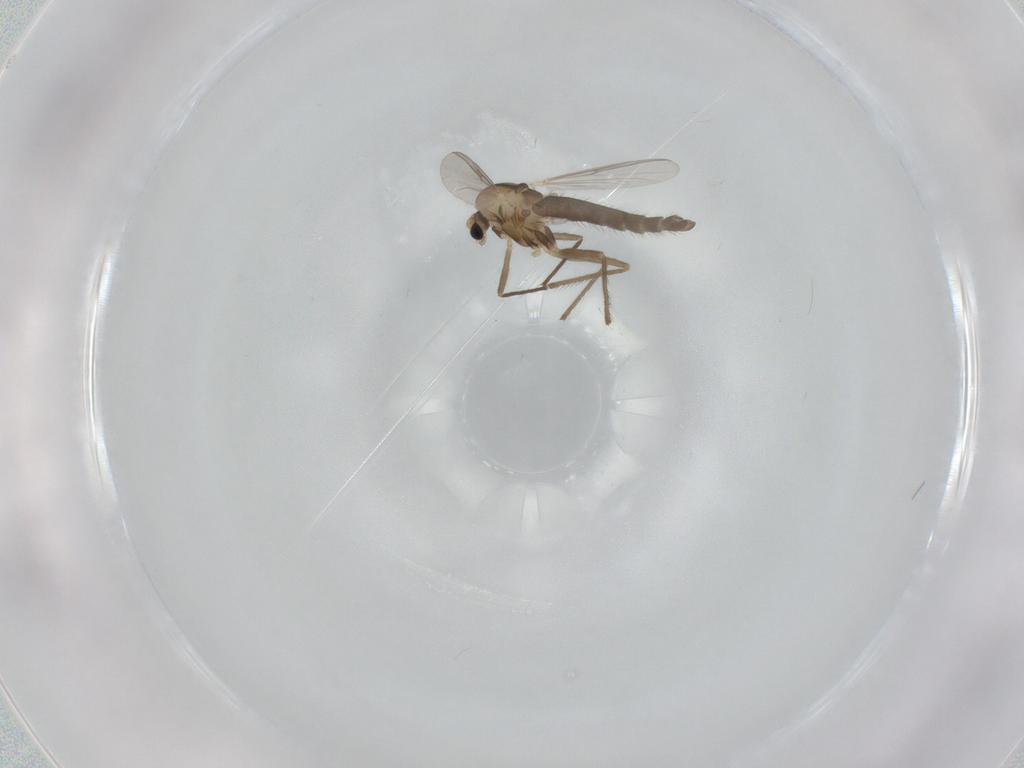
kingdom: Animalia
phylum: Arthropoda
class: Insecta
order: Diptera
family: Chironomidae
